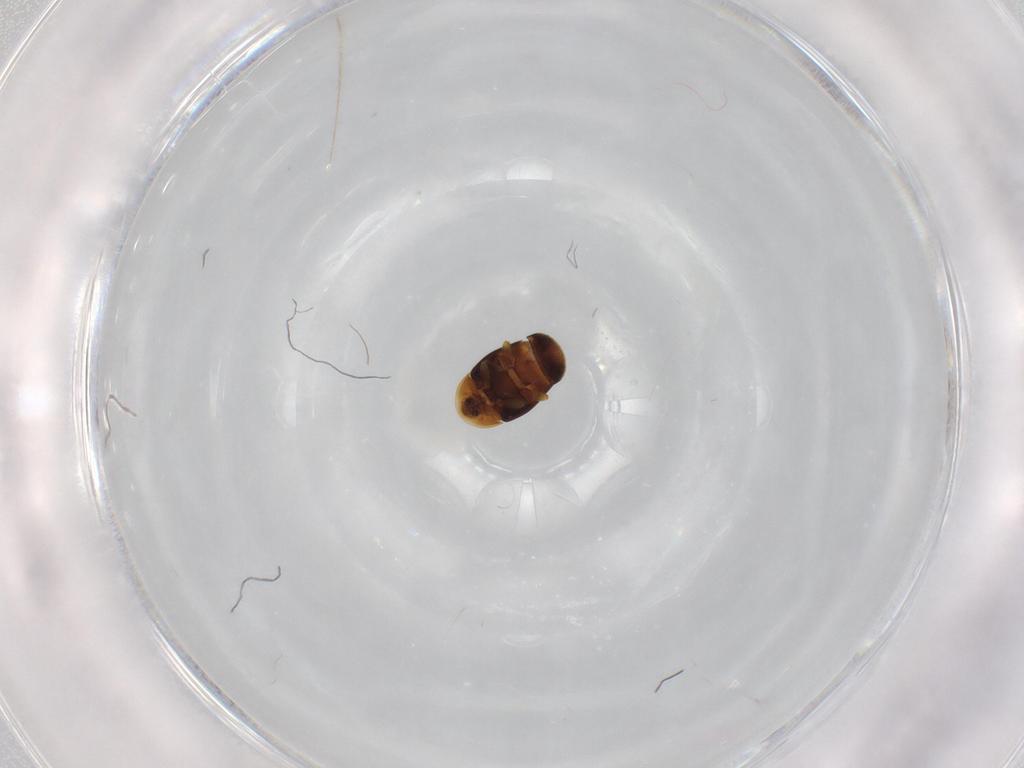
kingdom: Animalia
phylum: Arthropoda
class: Insecta
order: Coleoptera
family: Corylophidae
